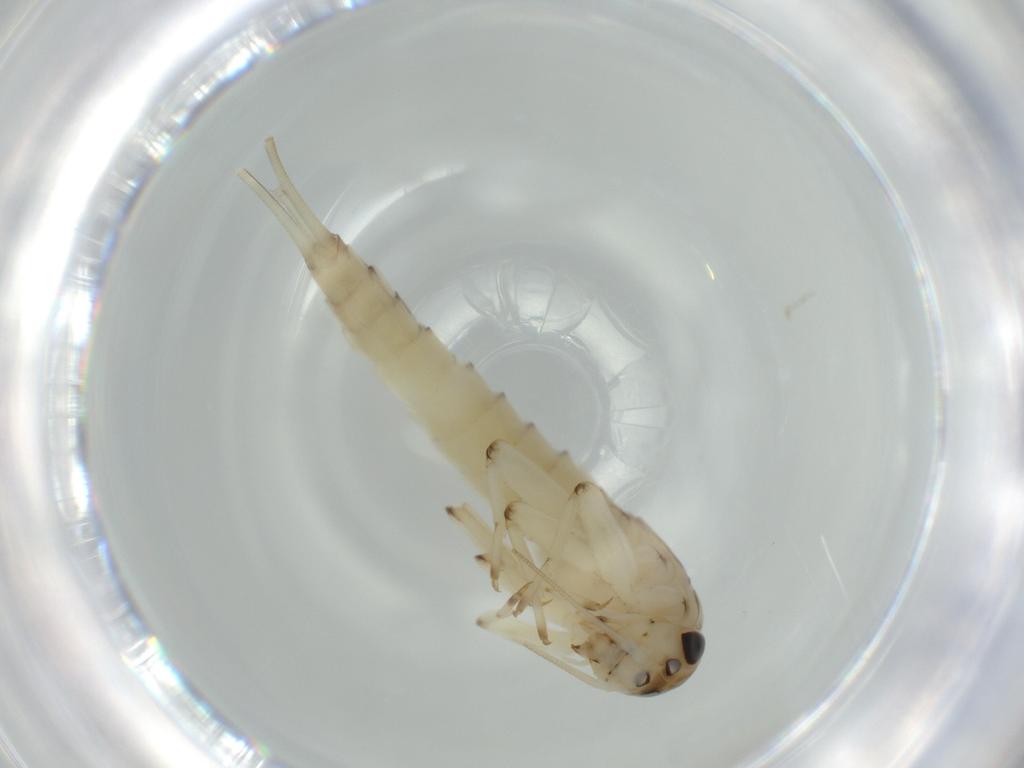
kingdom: Animalia
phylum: Arthropoda
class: Insecta
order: Ephemeroptera
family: Baetidae
